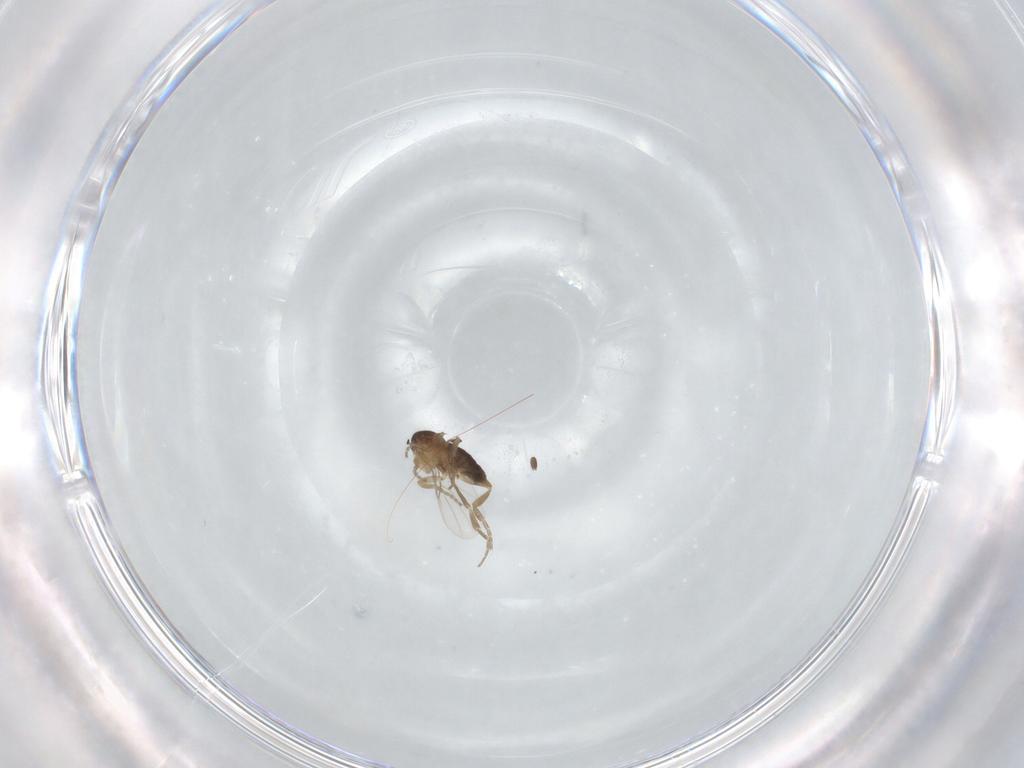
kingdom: Animalia
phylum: Arthropoda
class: Insecta
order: Diptera
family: Phoridae
